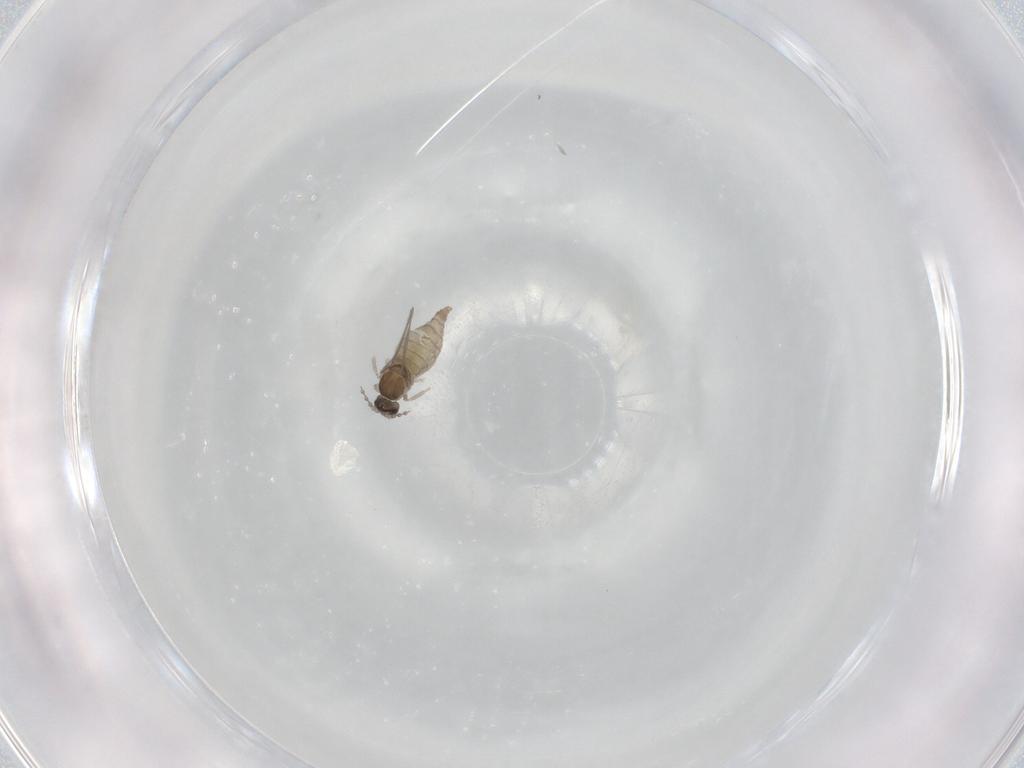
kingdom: Animalia
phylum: Arthropoda
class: Insecta
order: Diptera
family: Cecidomyiidae
